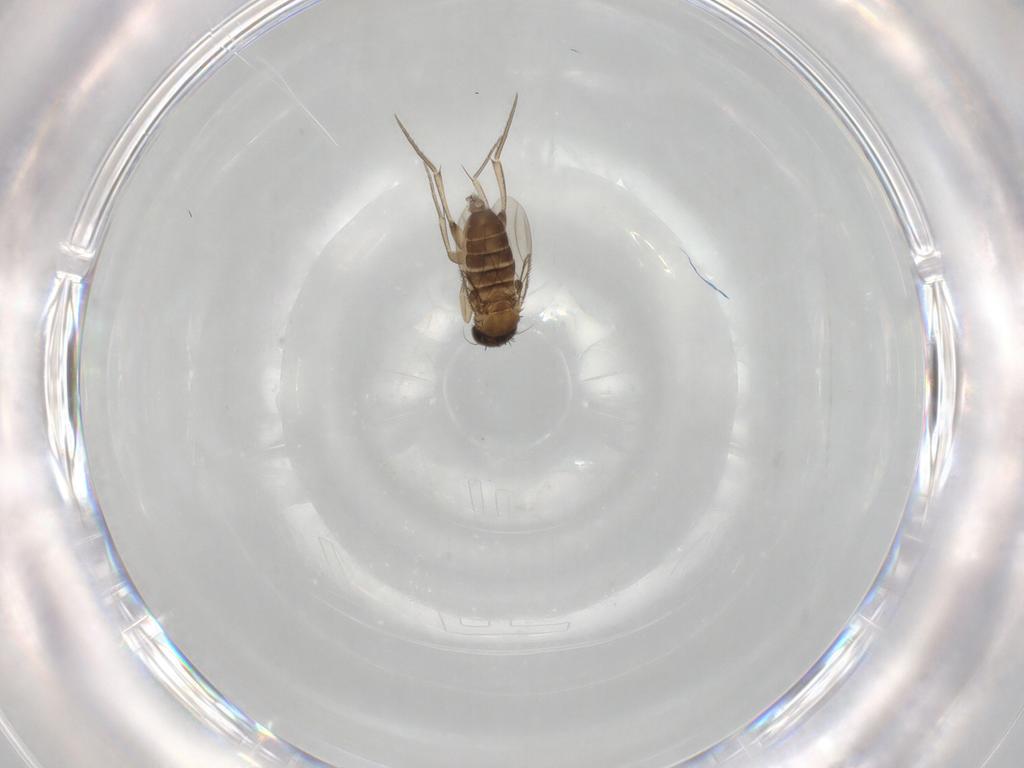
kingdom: Animalia
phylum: Arthropoda
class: Insecta
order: Diptera
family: Phoridae
